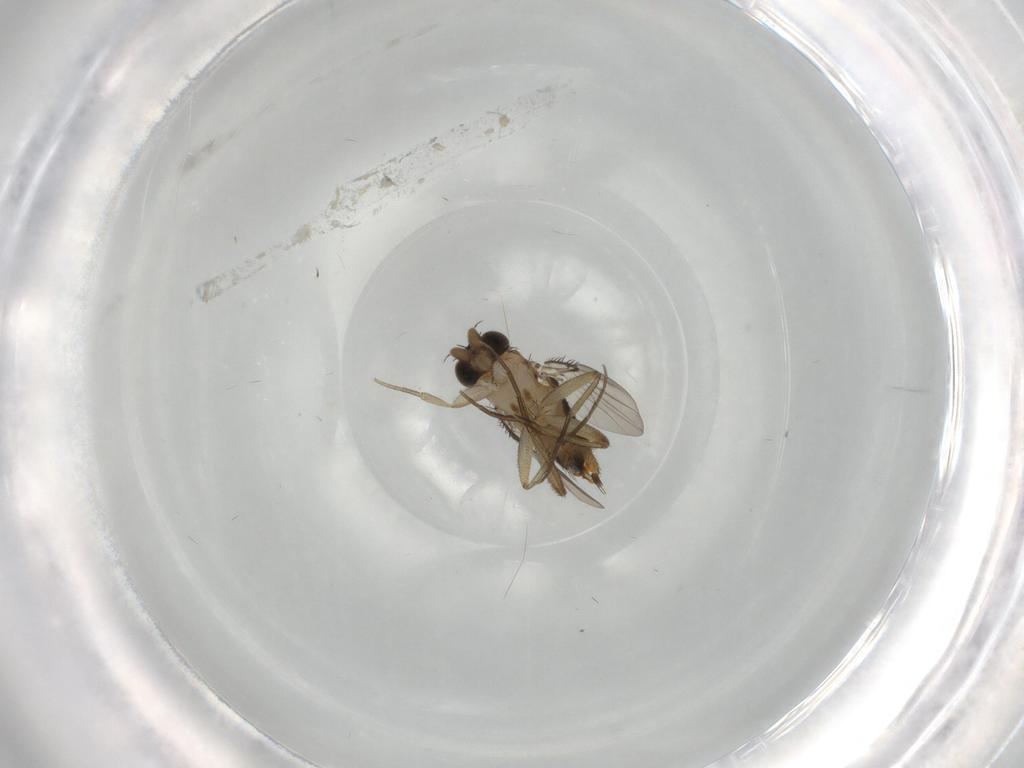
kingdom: Animalia
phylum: Arthropoda
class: Insecta
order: Diptera
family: Phoridae
